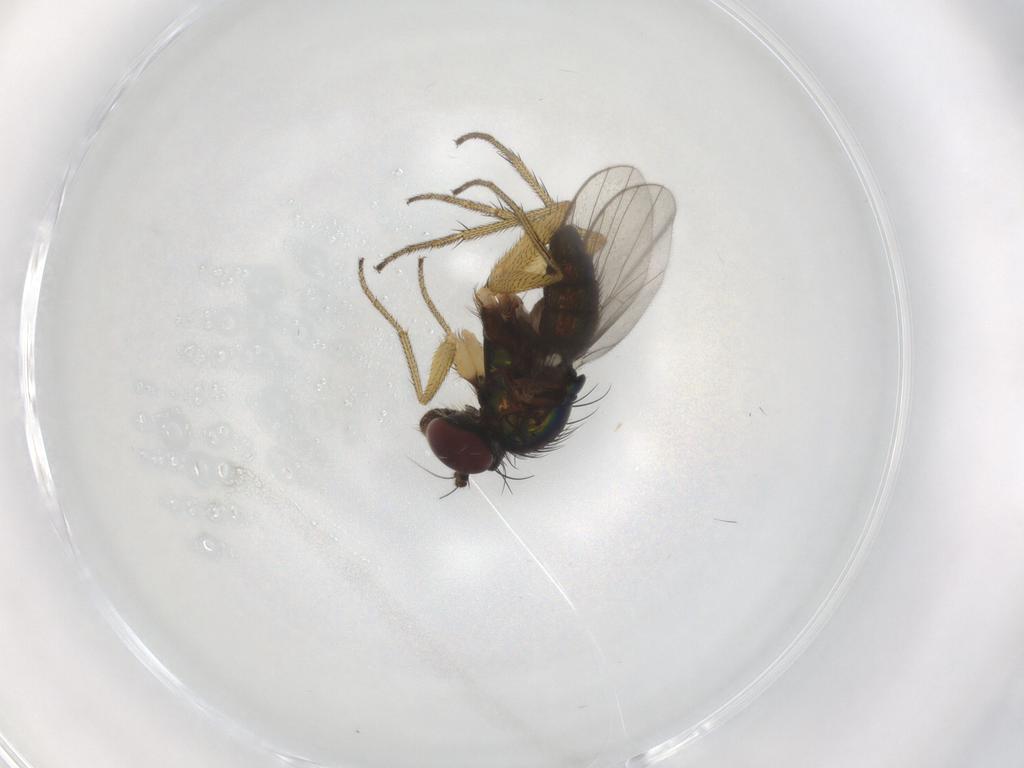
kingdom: Animalia
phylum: Arthropoda
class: Insecta
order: Diptera
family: Dolichopodidae
